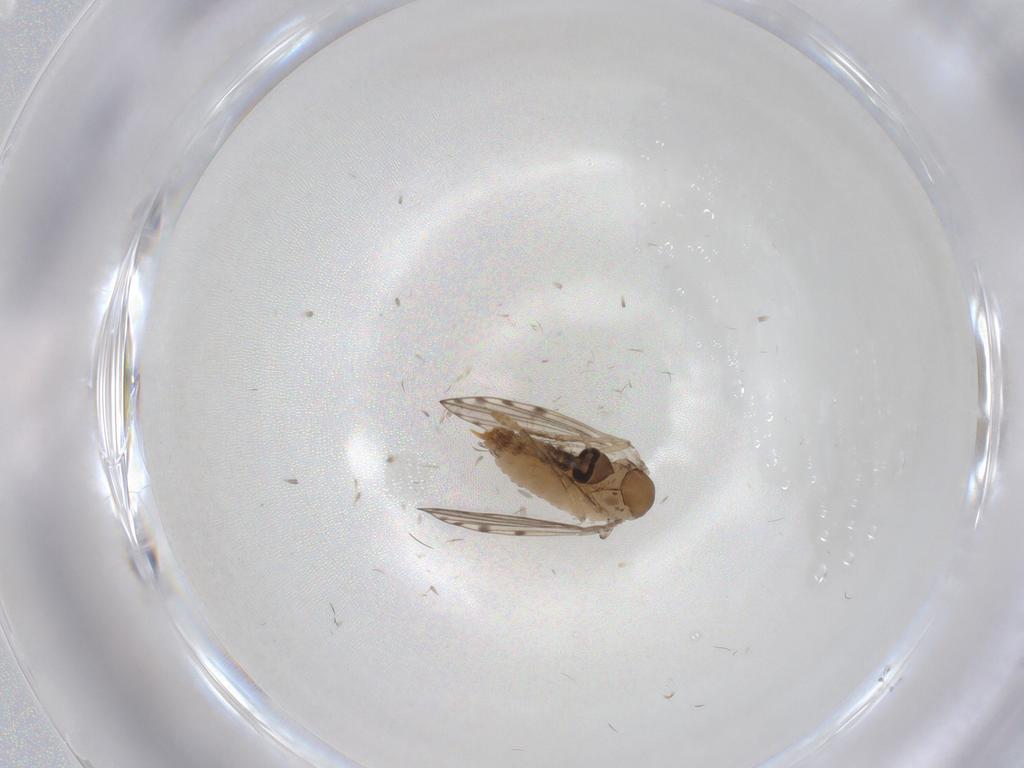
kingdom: Animalia
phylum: Arthropoda
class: Insecta
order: Diptera
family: Psychodidae
